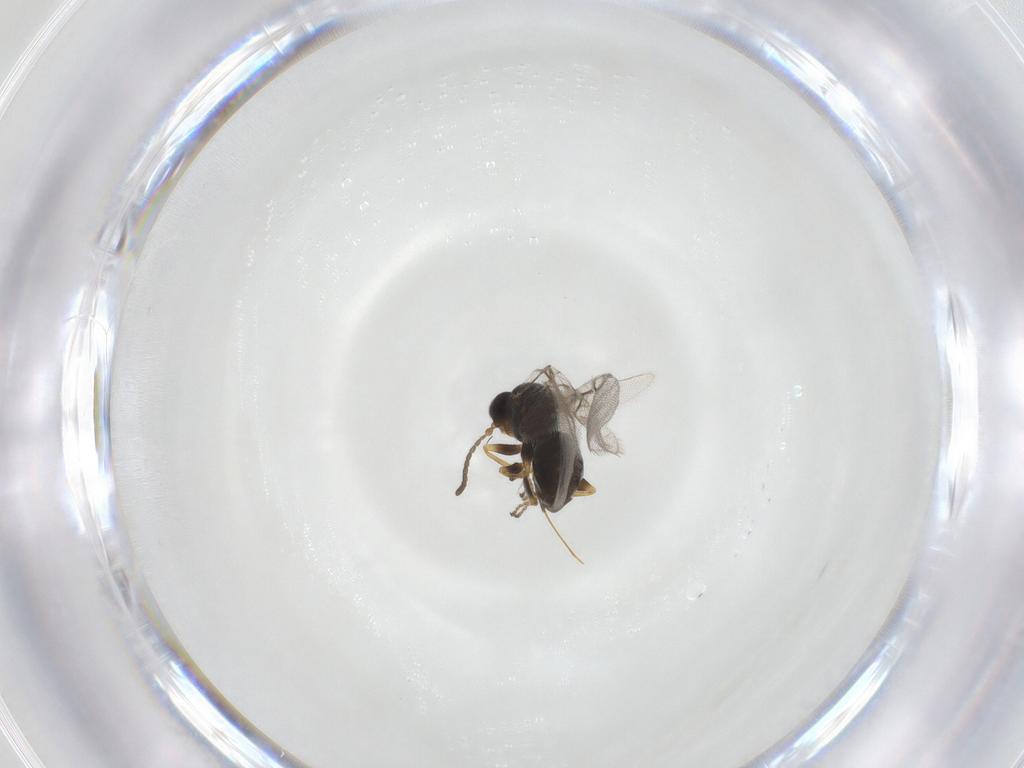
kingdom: Animalia
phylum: Arthropoda
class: Insecta
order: Hymenoptera
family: Cynipidae
